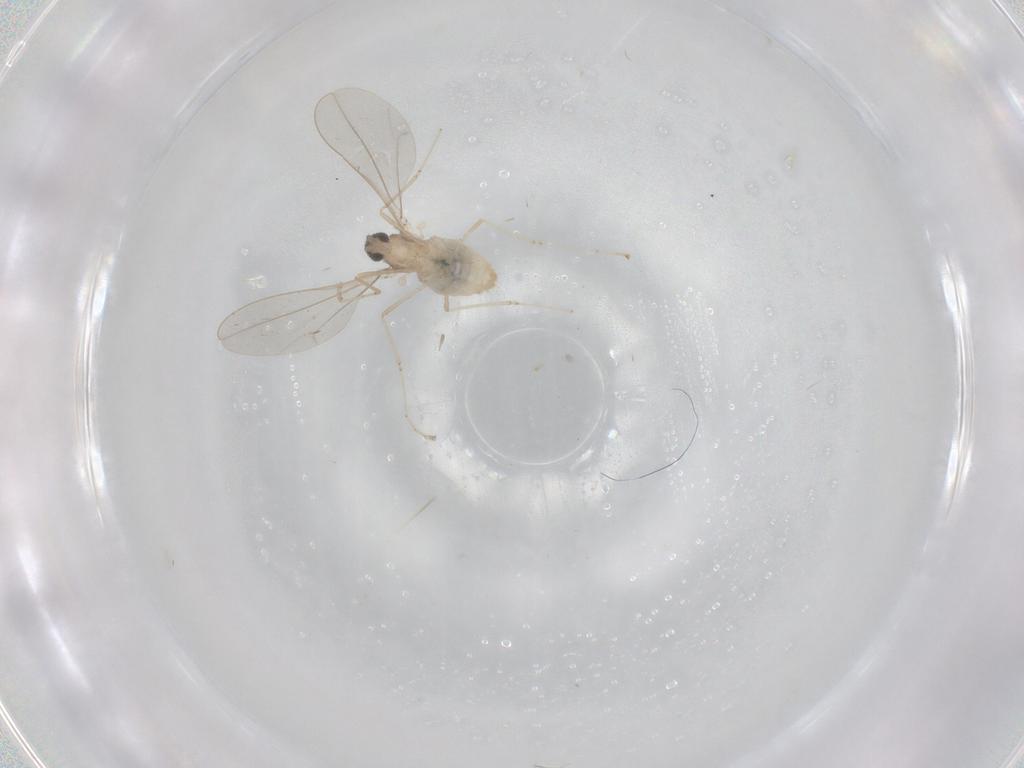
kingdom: Animalia
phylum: Arthropoda
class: Insecta
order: Diptera
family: Cecidomyiidae
